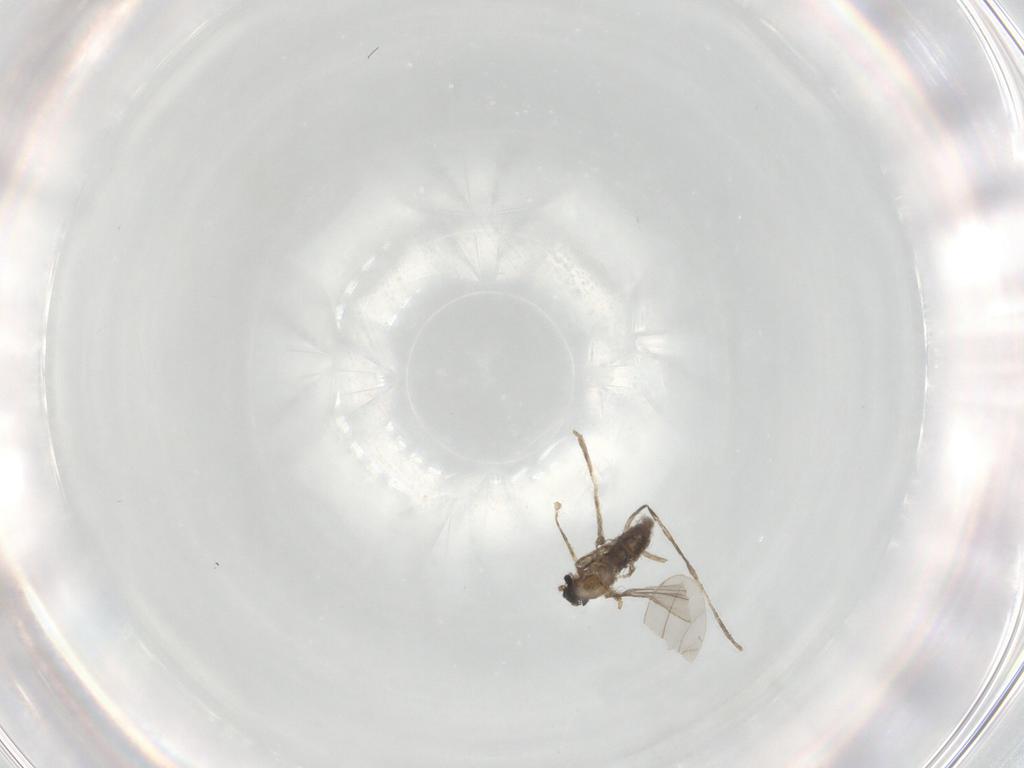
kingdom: Animalia
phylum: Arthropoda
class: Insecta
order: Diptera
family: Cecidomyiidae
